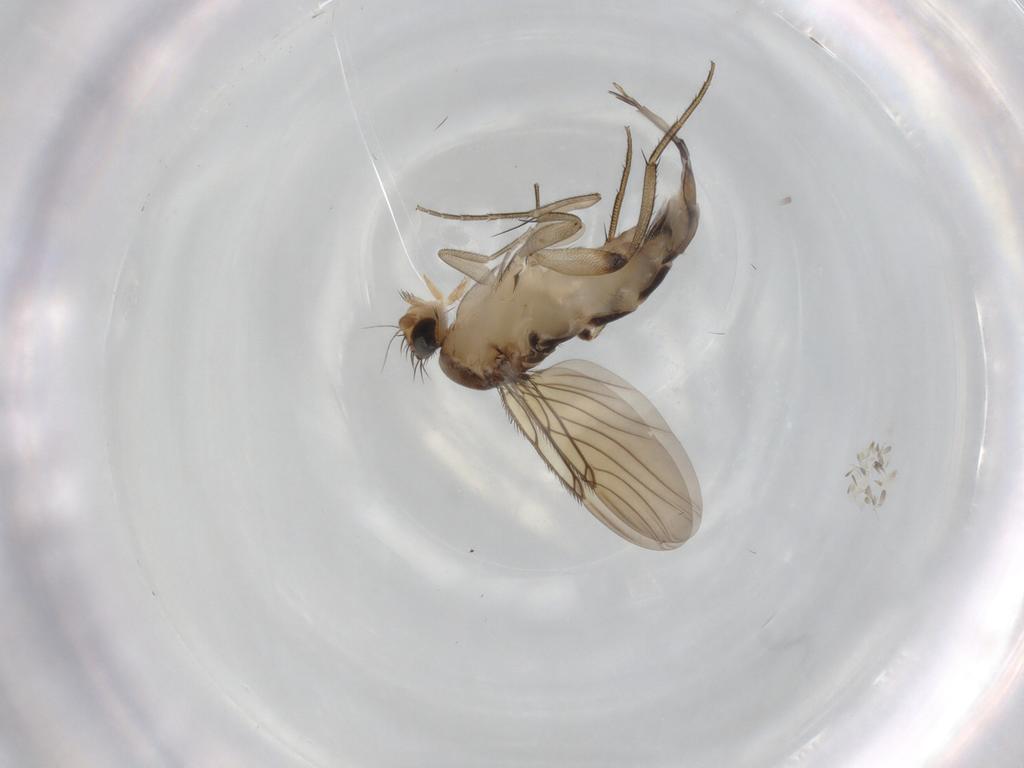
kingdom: Animalia
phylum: Arthropoda
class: Insecta
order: Diptera
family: Phoridae
